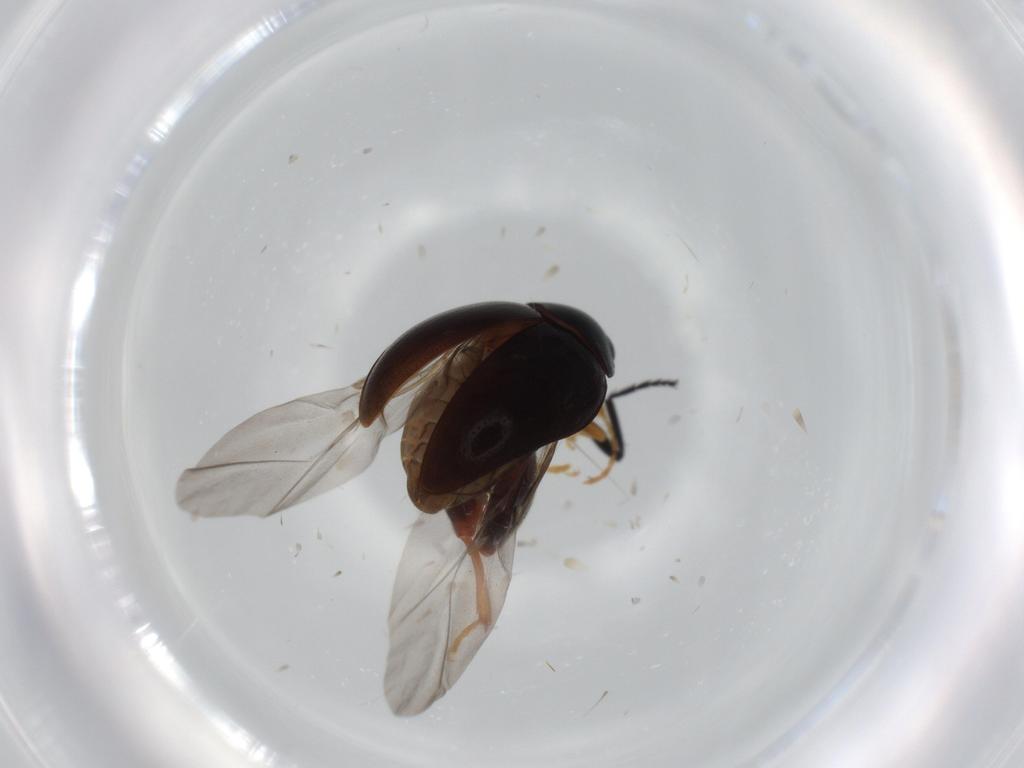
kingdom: Animalia
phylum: Arthropoda
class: Insecta
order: Coleoptera
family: Chrysomelidae
